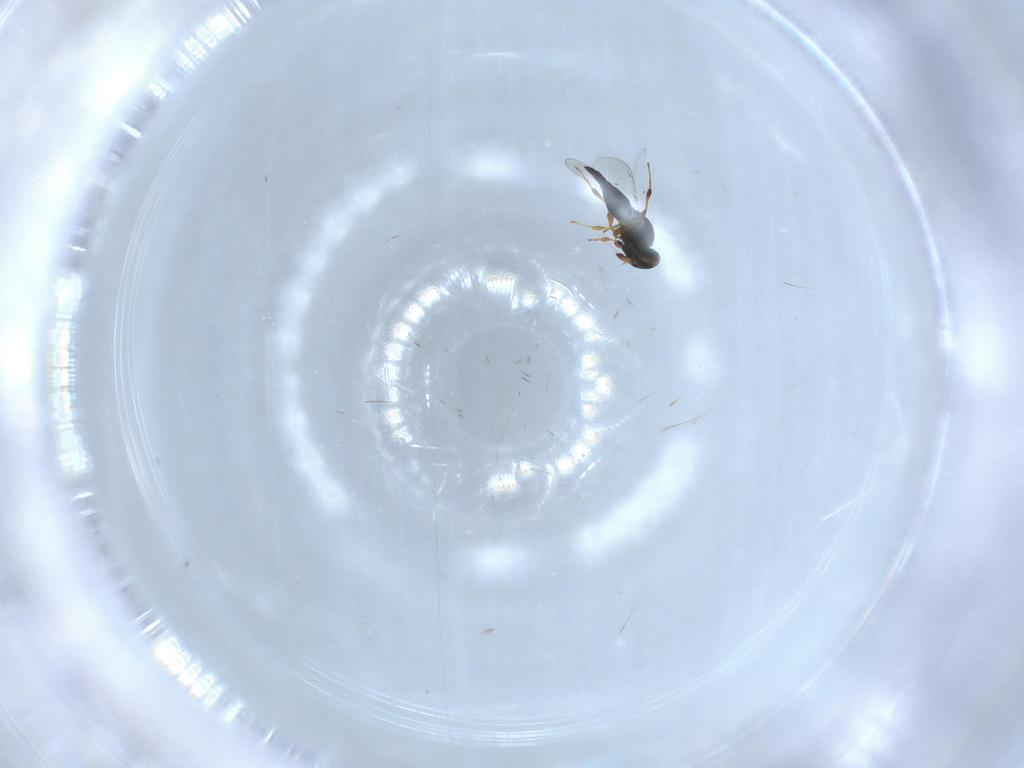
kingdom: Animalia
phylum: Arthropoda
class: Insecta
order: Hymenoptera
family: Platygastridae
